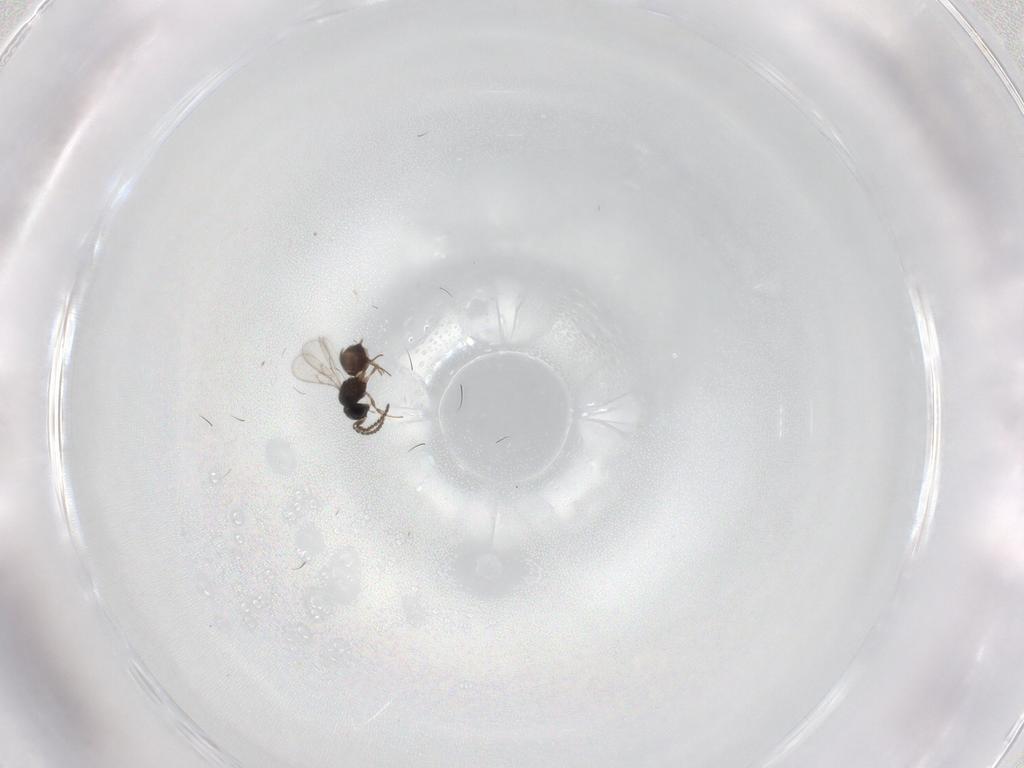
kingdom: Animalia
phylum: Arthropoda
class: Insecta
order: Hymenoptera
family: Scelionidae
